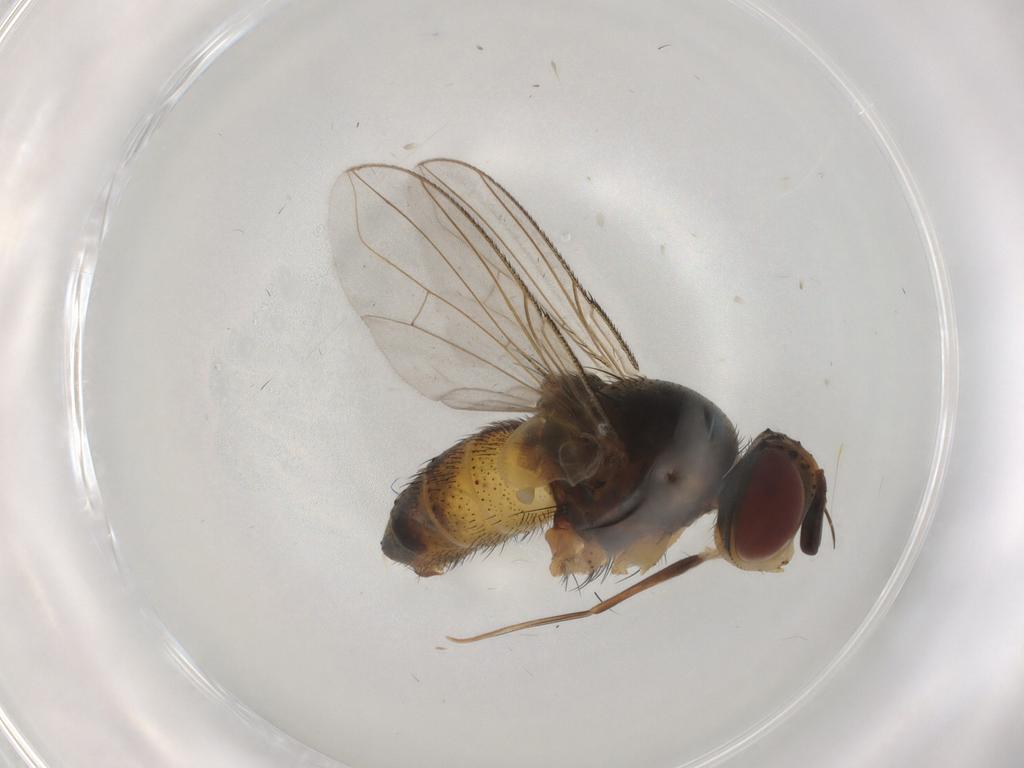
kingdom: Animalia
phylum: Arthropoda
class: Insecta
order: Diptera
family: Tachinidae
